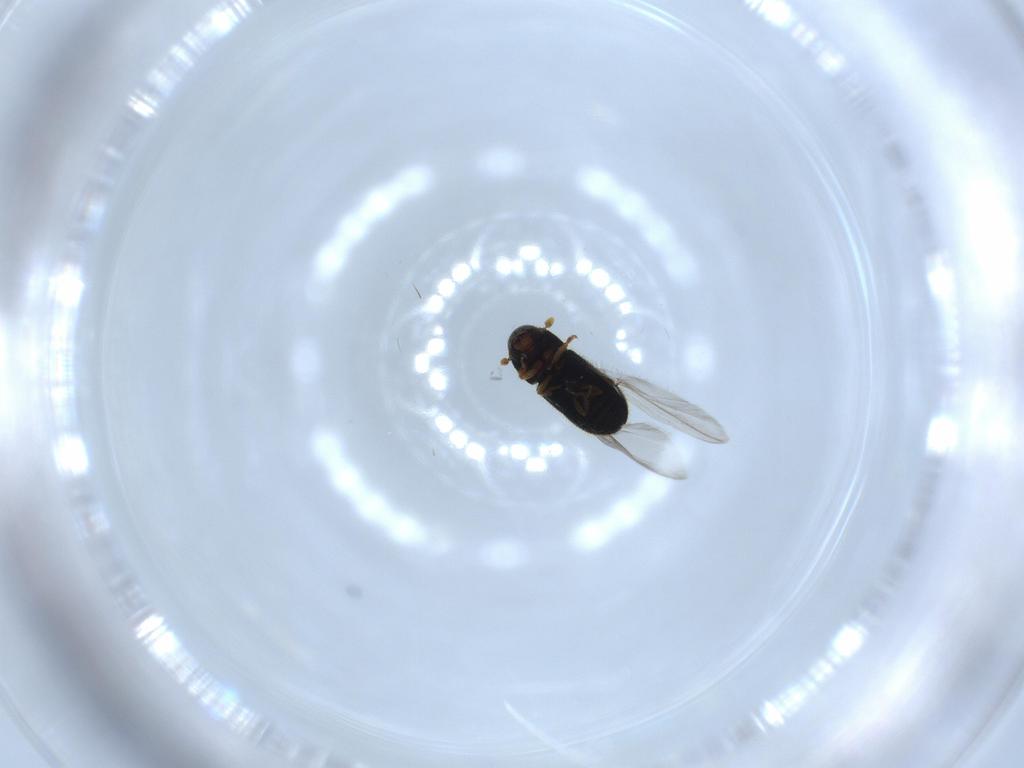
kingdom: Animalia
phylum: Arthropoda
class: Insecta
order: Coleoptera
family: Curculionidae
